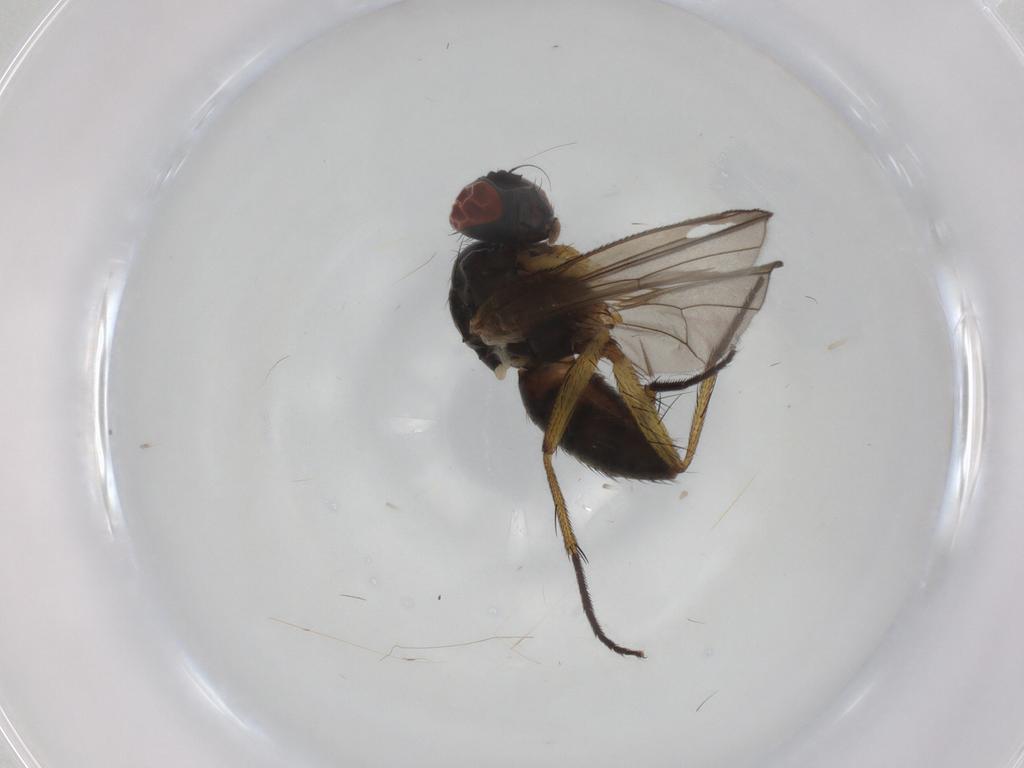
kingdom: Animalia
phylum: Arthropoda
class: Insecta
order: Diptera
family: Muscidae
